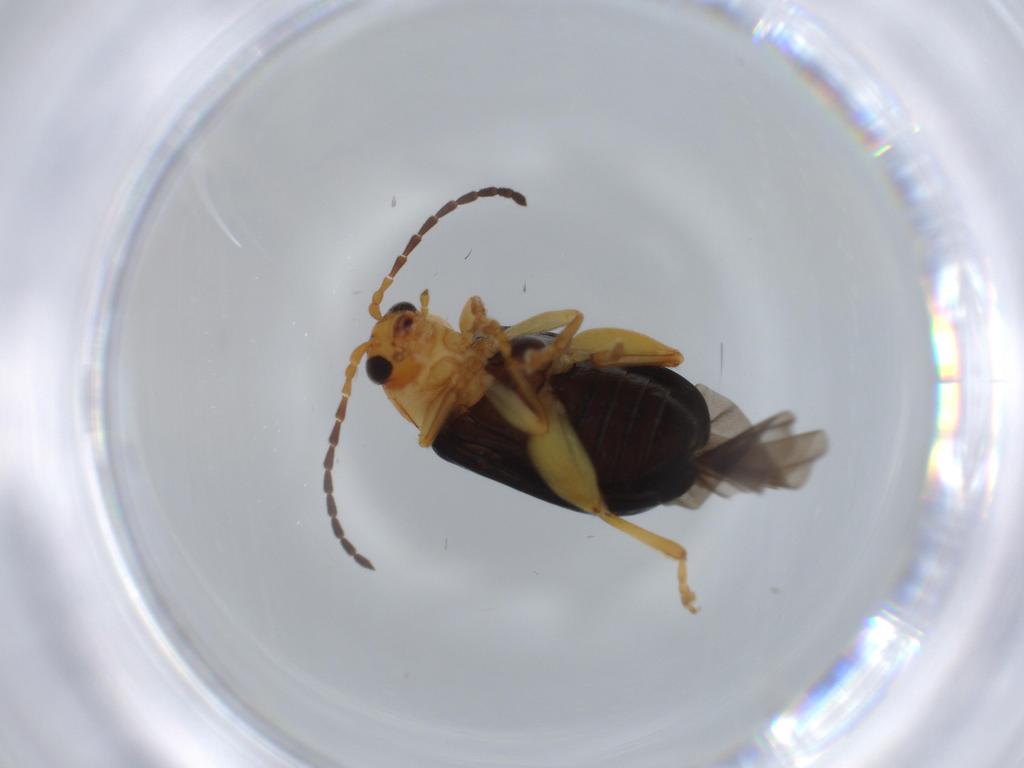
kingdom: Animalia
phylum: Arthropoda
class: Insecta
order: Coleoptera
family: Chrysomelidae
